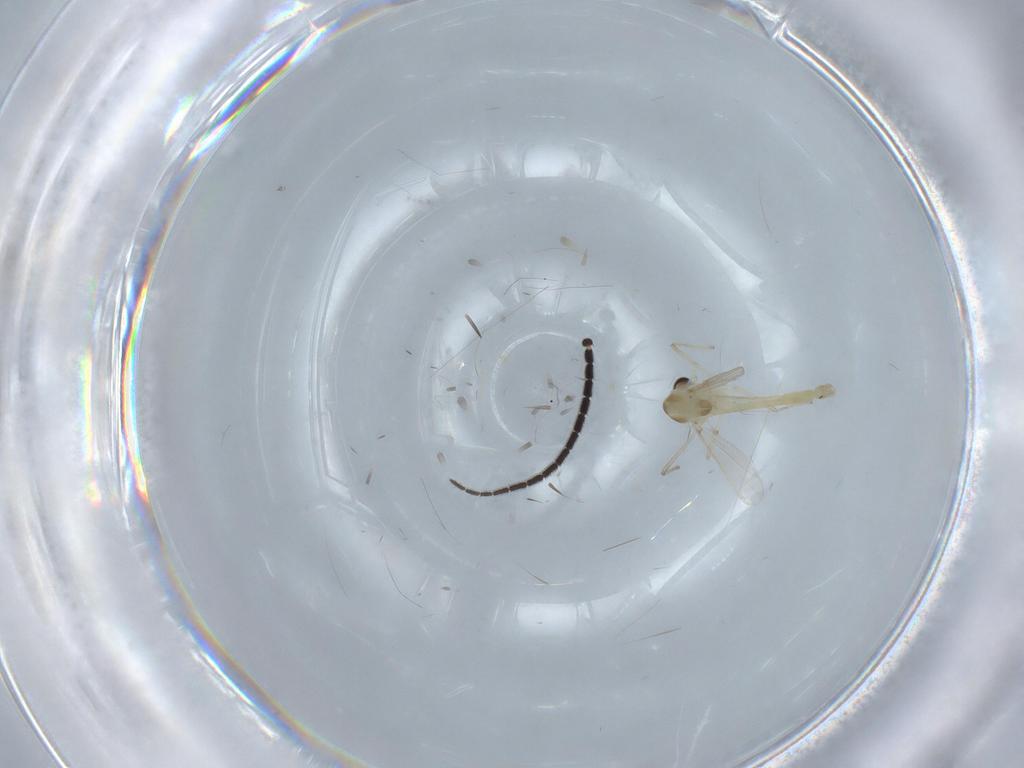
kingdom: Animalia
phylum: Arthropoda
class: Insecta
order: Diptera
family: Sciaridae
